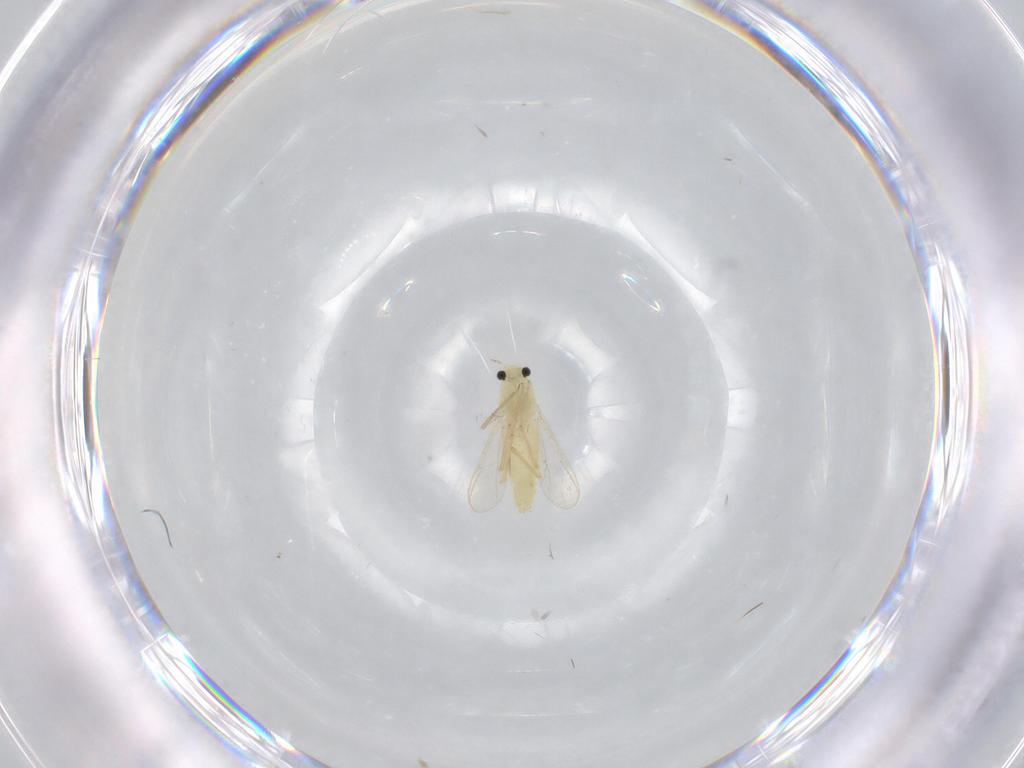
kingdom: Animalia
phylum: Arthropoda
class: Insecta
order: Diptera
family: Chironomidae
